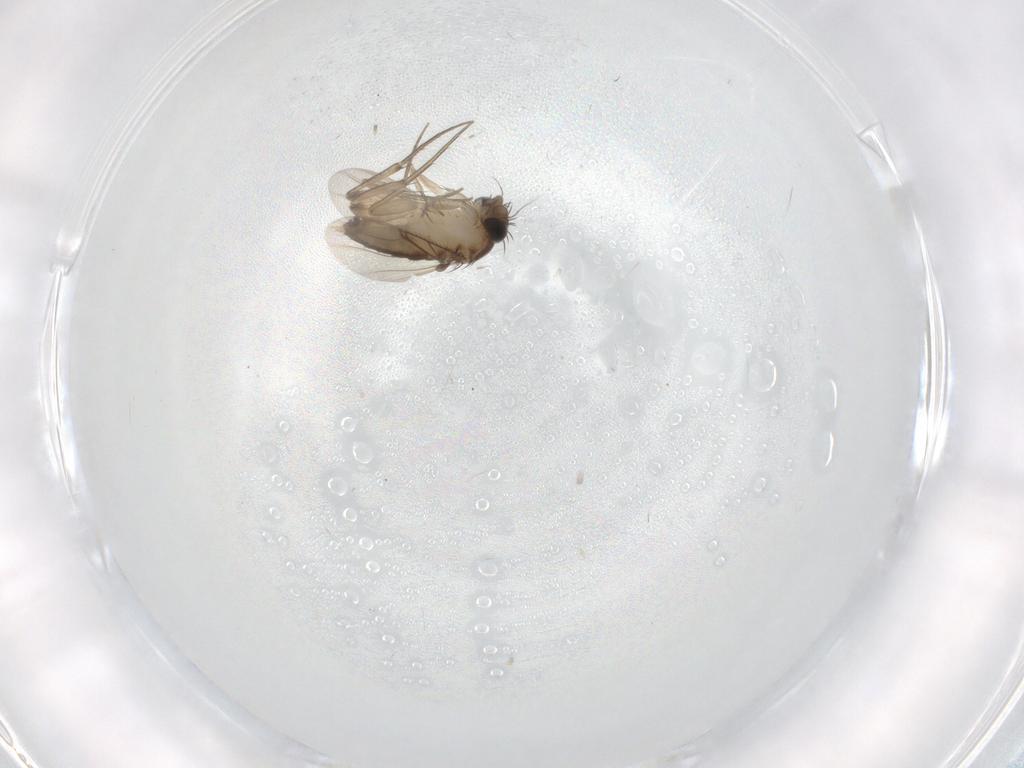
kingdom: Animalia
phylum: Arthropoda
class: Insecta
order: Diptera
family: Phoridae
